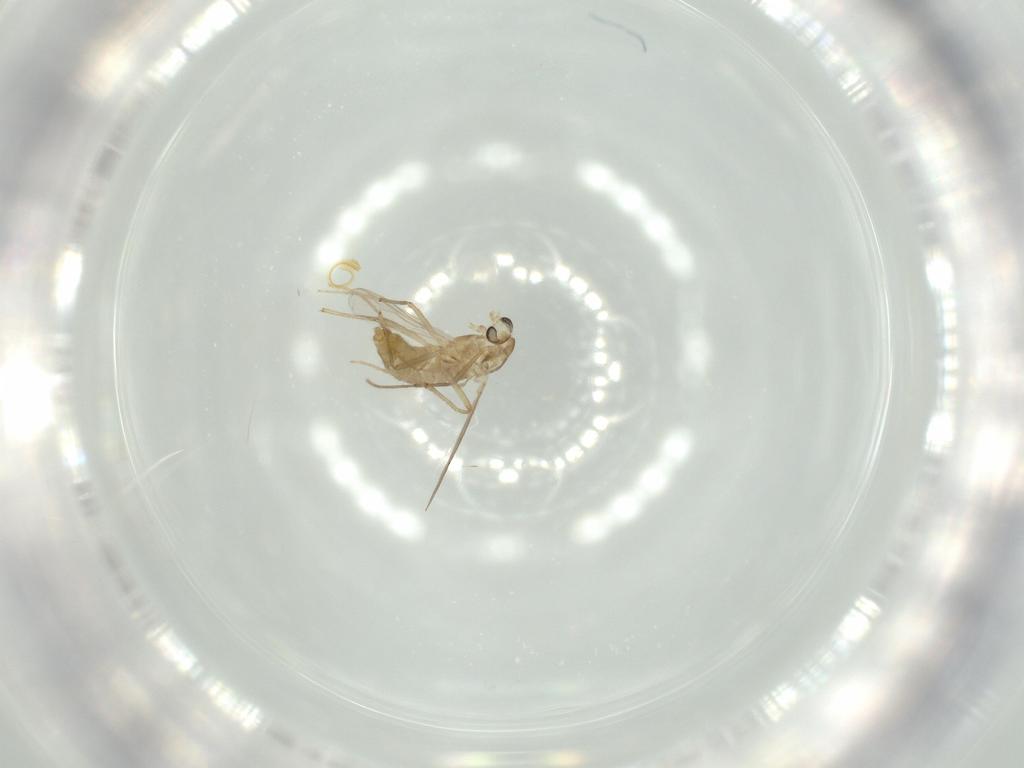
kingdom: Animalia
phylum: Arthropoda
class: Insecta
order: Diptera
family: Chironomidae
